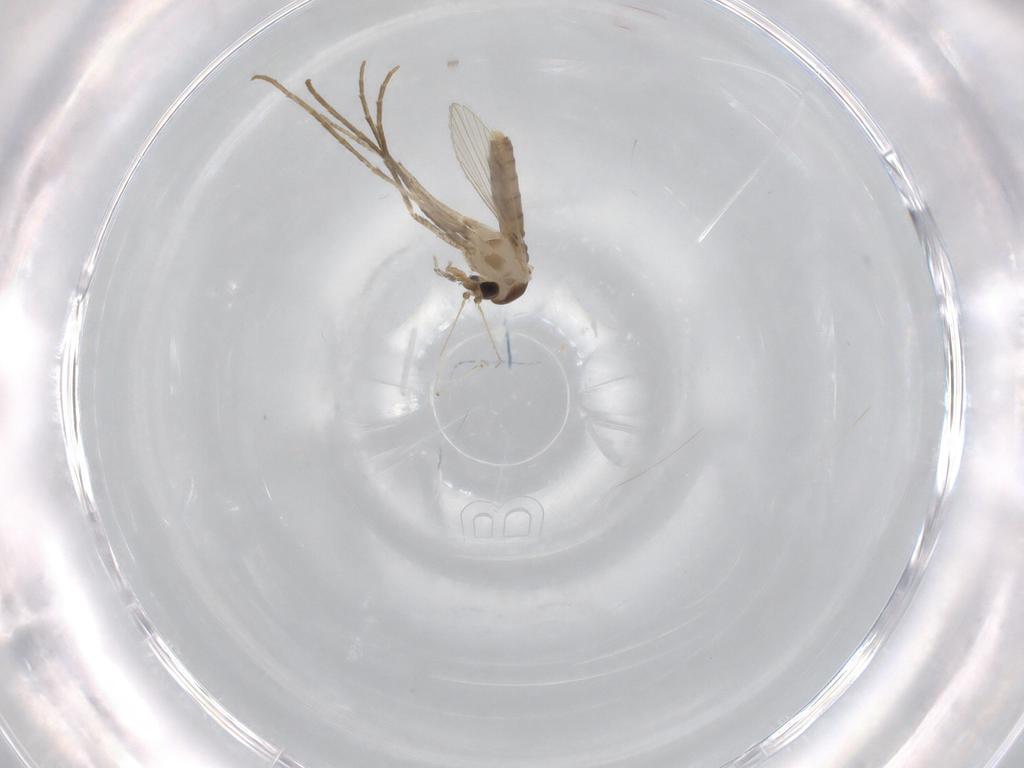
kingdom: Animalia
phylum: Arthropoda
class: Insecta
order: Diptera
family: Psychodidae
